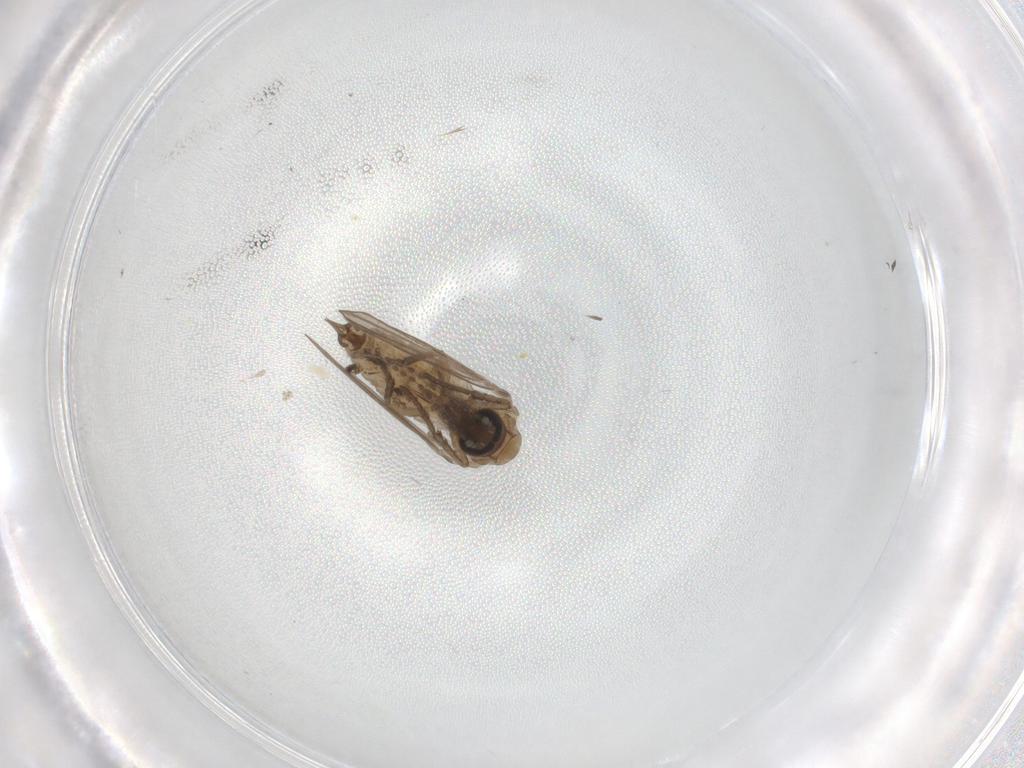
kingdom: Animalia
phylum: Arthropoda
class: Insecta
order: Diptera
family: Psychodidae
